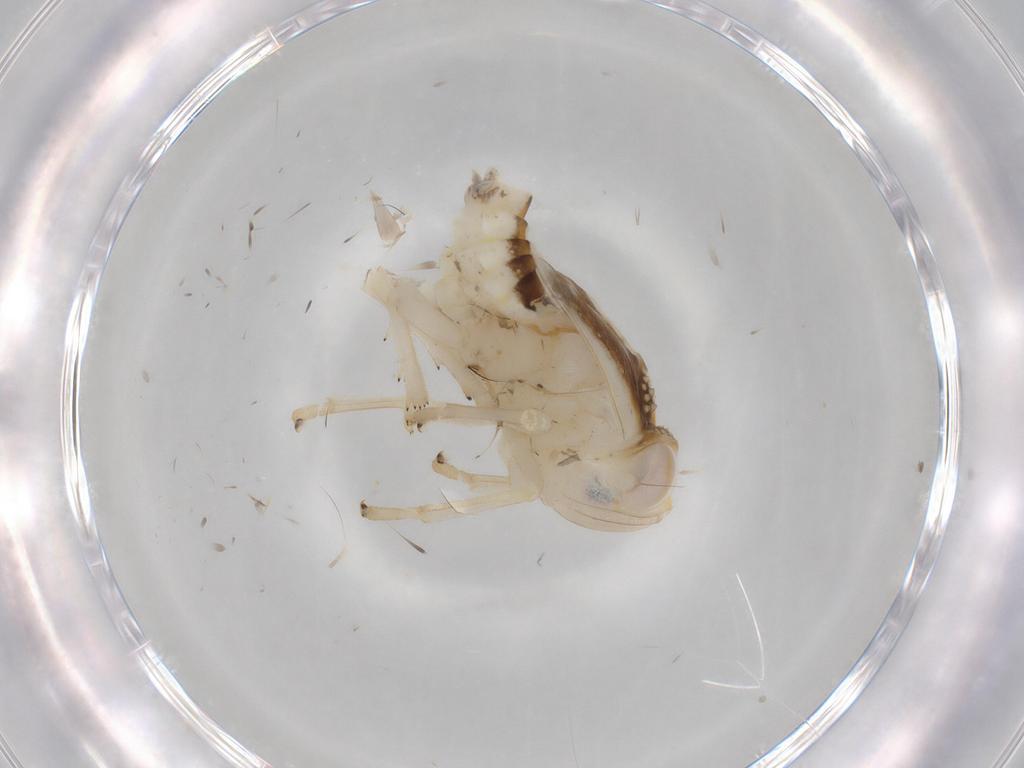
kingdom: Animalia
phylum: Arthropoda
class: Insecta
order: Hemiptera
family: Nogodinidae
